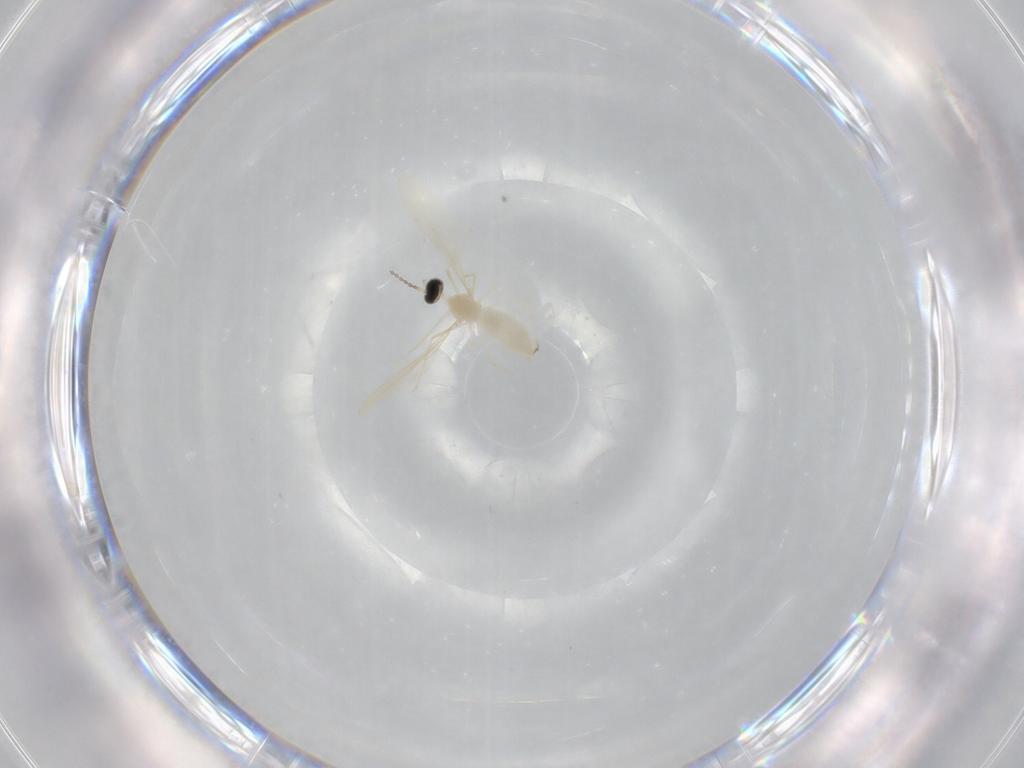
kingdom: Animalia
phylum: Arthropoda
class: Insecta
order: Diptera
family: Cecidomyiidae
